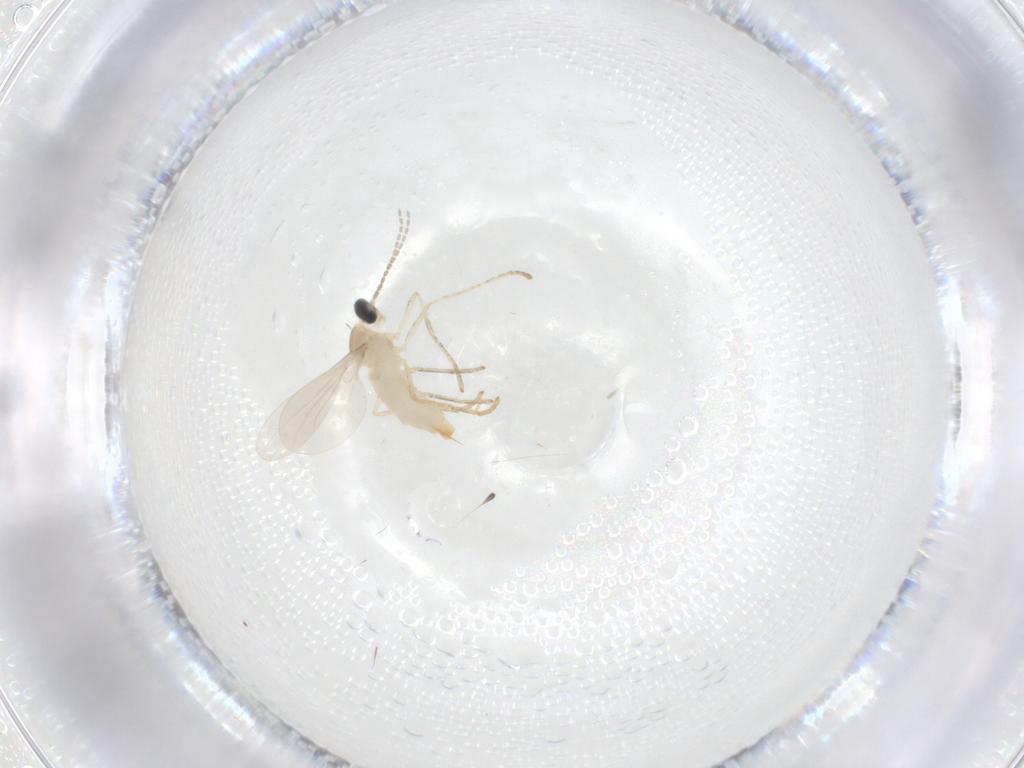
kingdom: Animalia
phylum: Arthropoda
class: Insecta
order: Diptera
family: Cecidomyiidae
